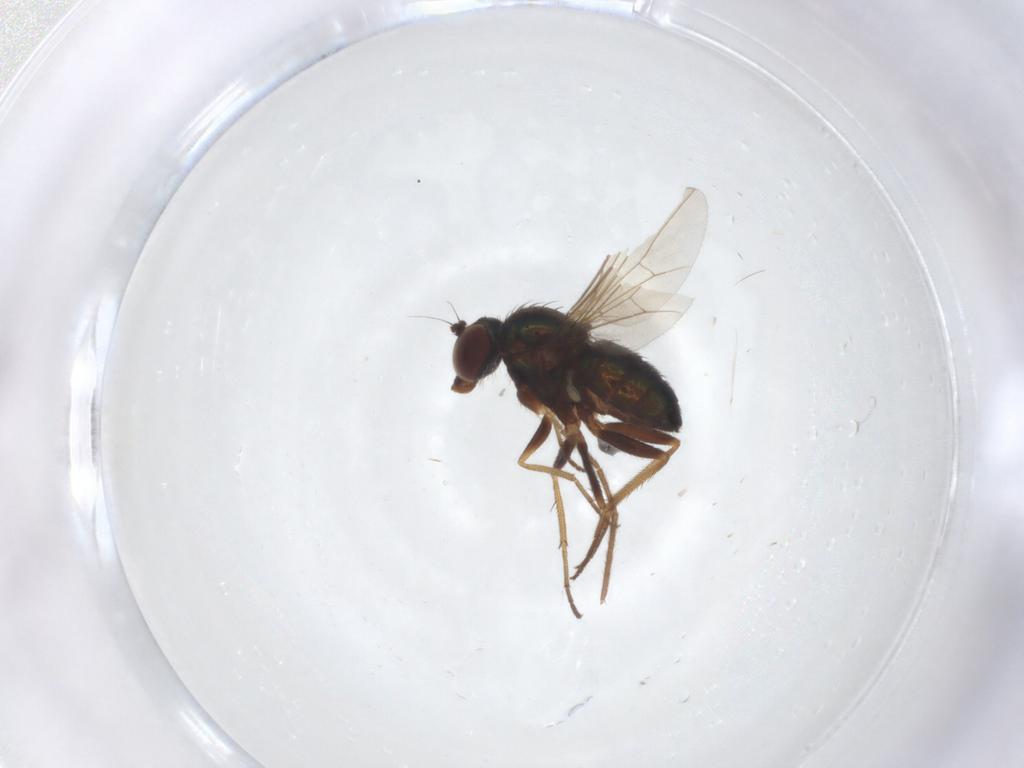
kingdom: Animalia
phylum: Arthropoda
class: Insecta
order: Diptera
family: Dolichopodidae
